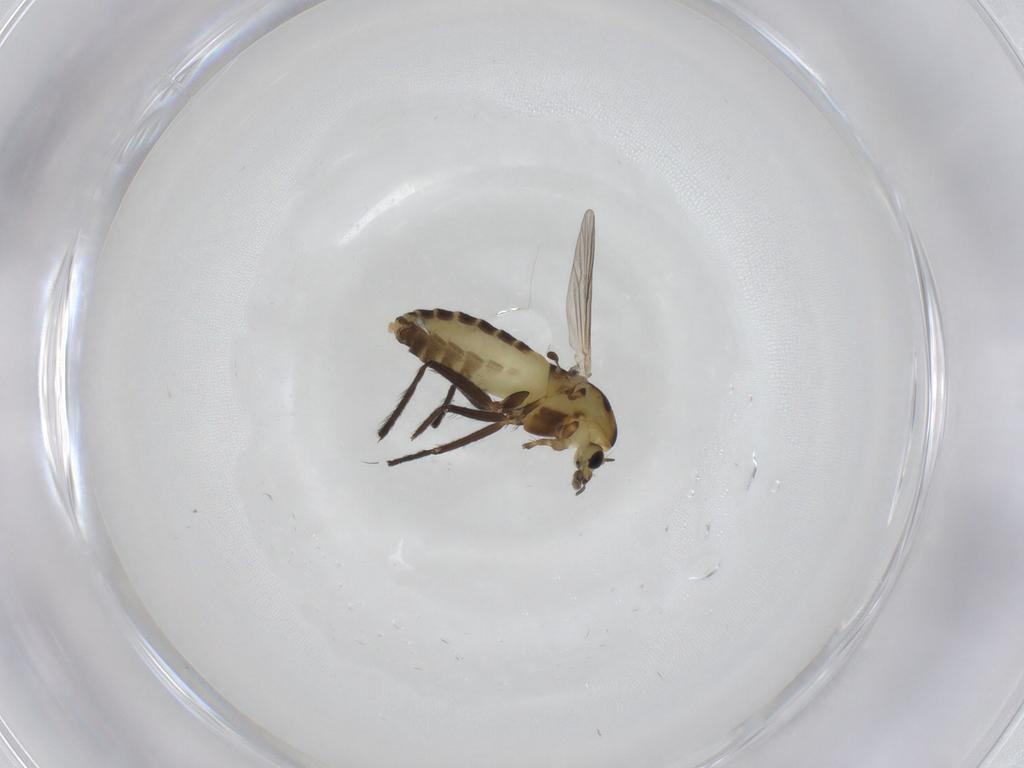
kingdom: Animalia
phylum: Arthropoda
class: Insecta
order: Diptera
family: Chironomidae
